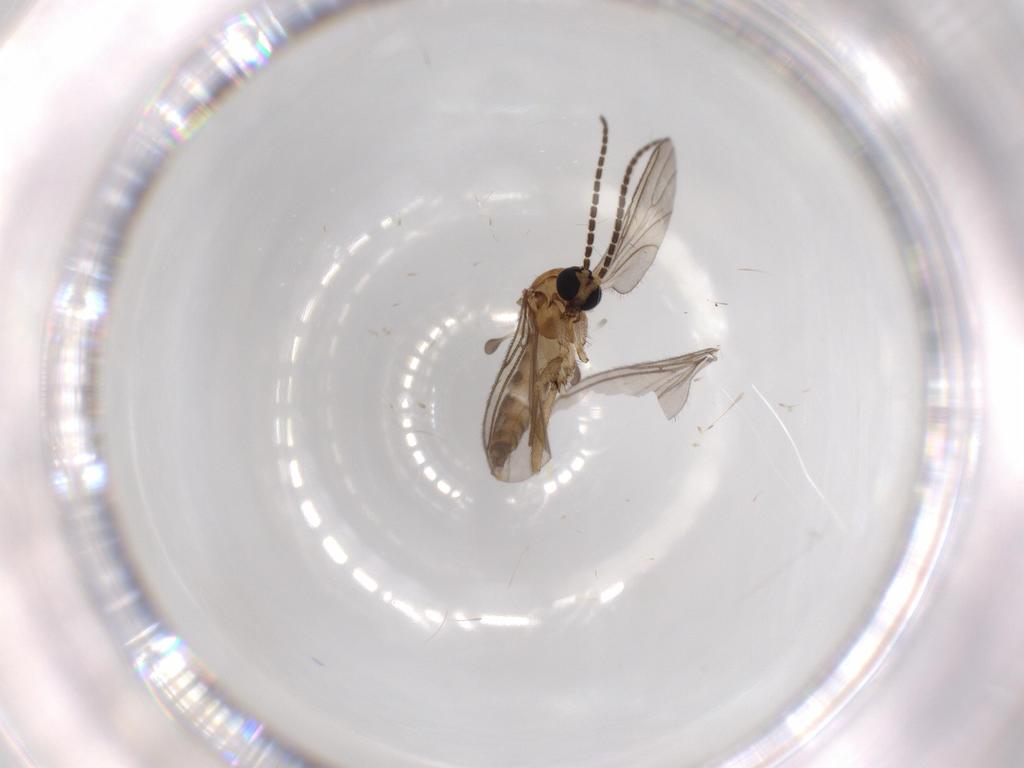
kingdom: Animalia
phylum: Arthropoda
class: Insecta
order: Diptera
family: Sciaridae
